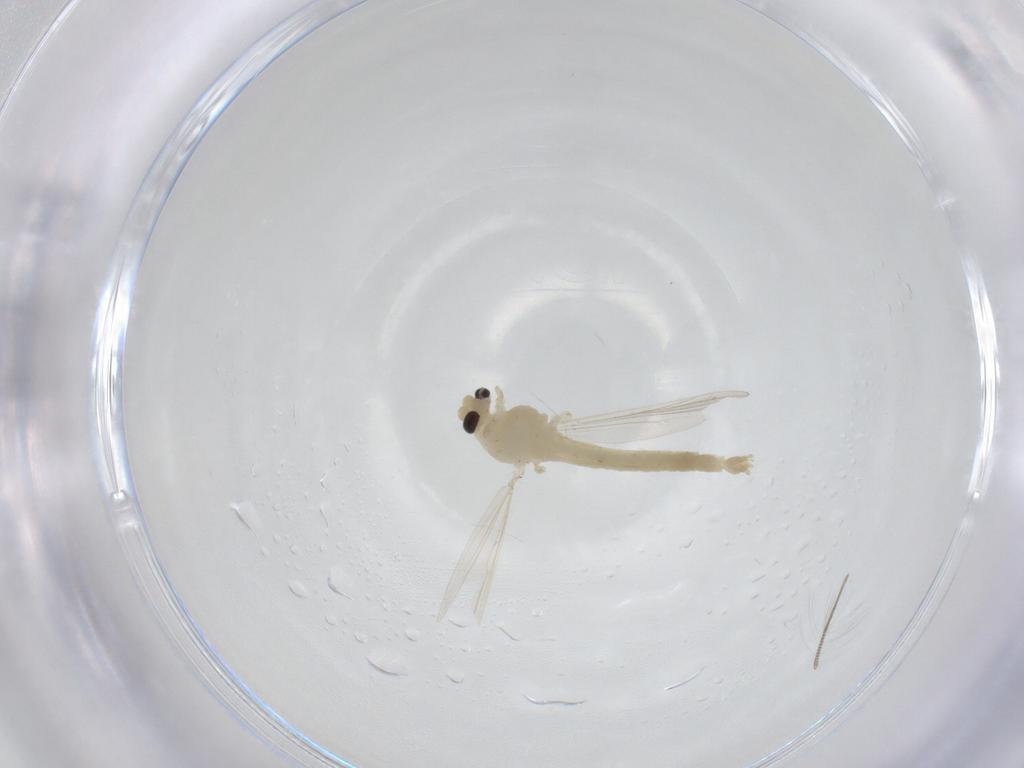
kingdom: Animalia
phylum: Arthropoda
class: Insecta
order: Diptera
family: Chironomidae
